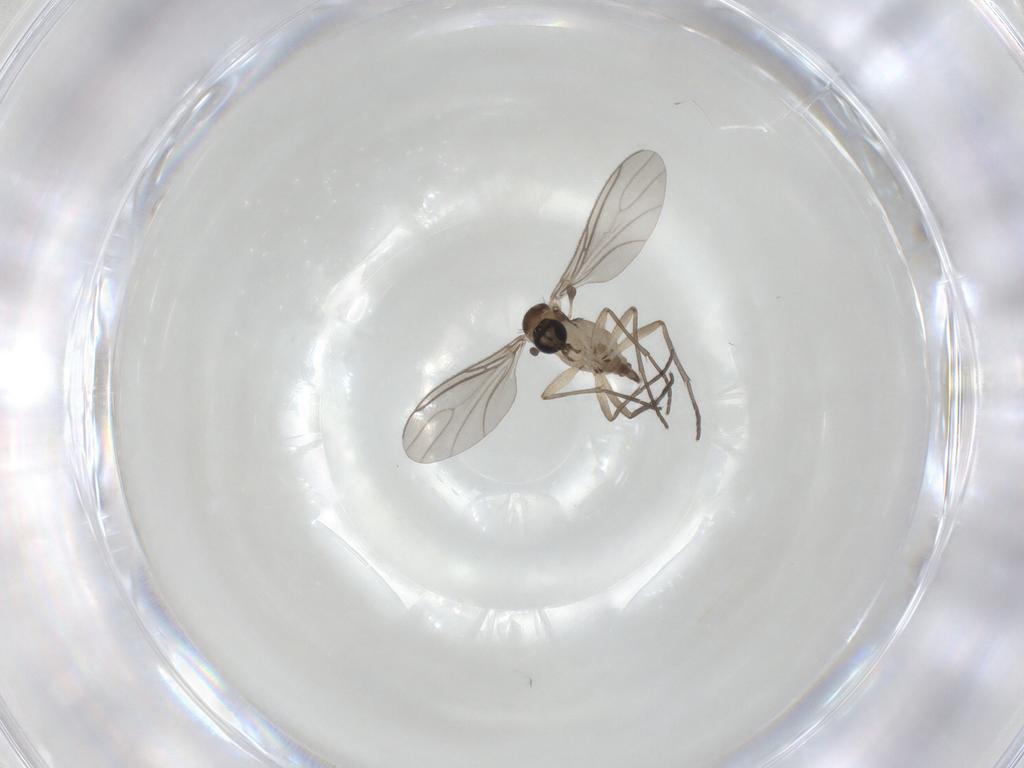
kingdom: Animalia
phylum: Arthropoda
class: Insecta
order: Diptera
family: Sciaridae
